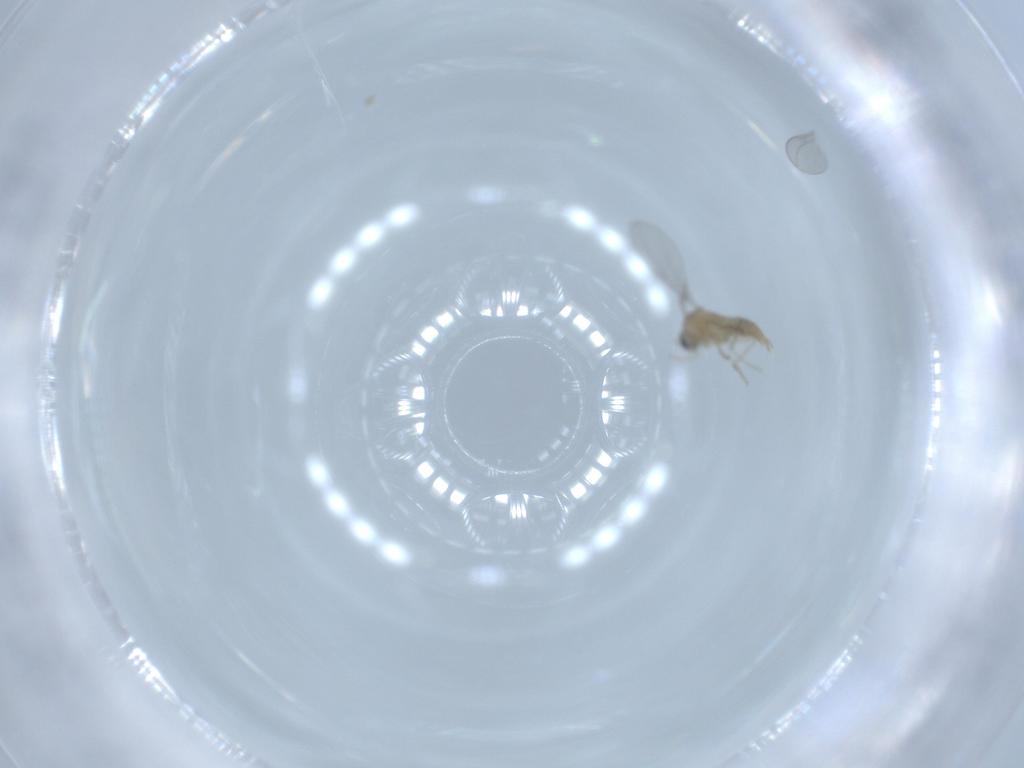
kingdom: Animalia
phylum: Arthropoda
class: Insecta
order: Diptera
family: Cecidomyiidae
